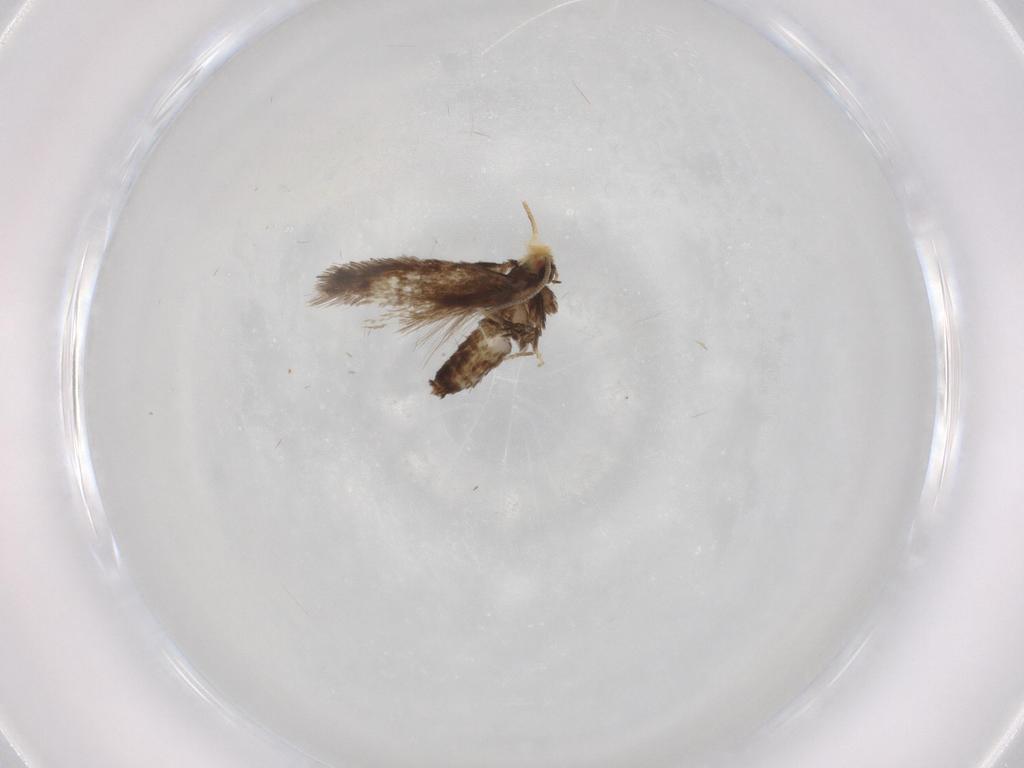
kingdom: Animalia
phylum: Arthropoda
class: Insecta
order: Lepidoptera
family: Nepticulidae
